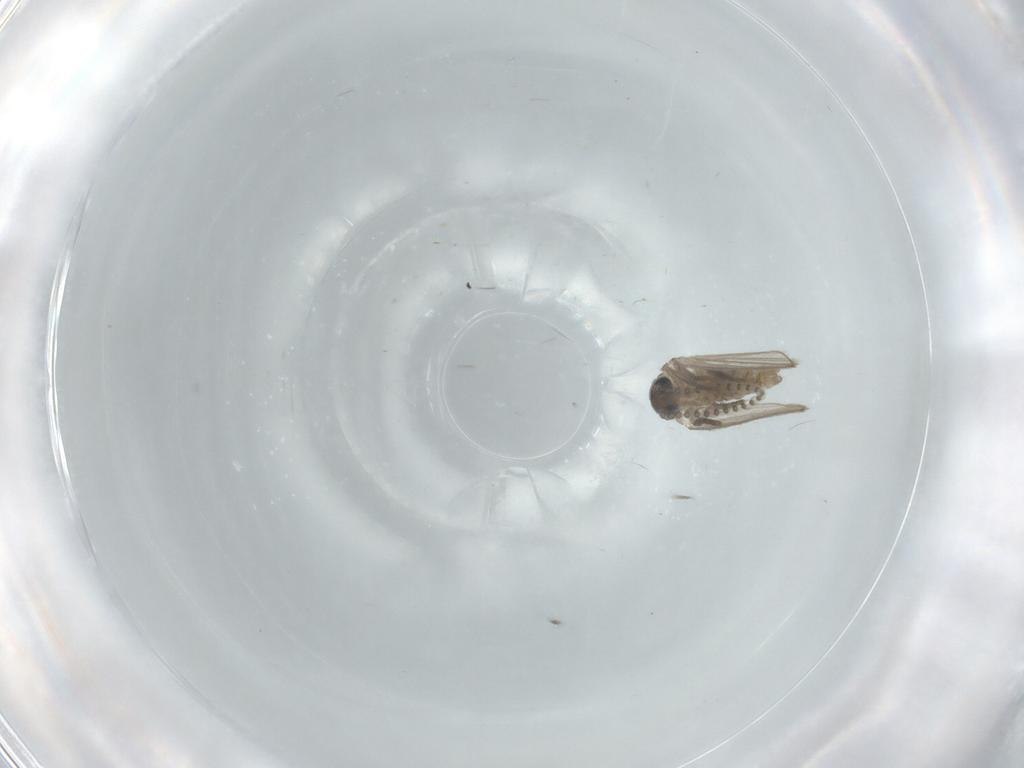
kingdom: Animalia
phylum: Arthropoda
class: Insecta
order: Diptera
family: Psychodidae
